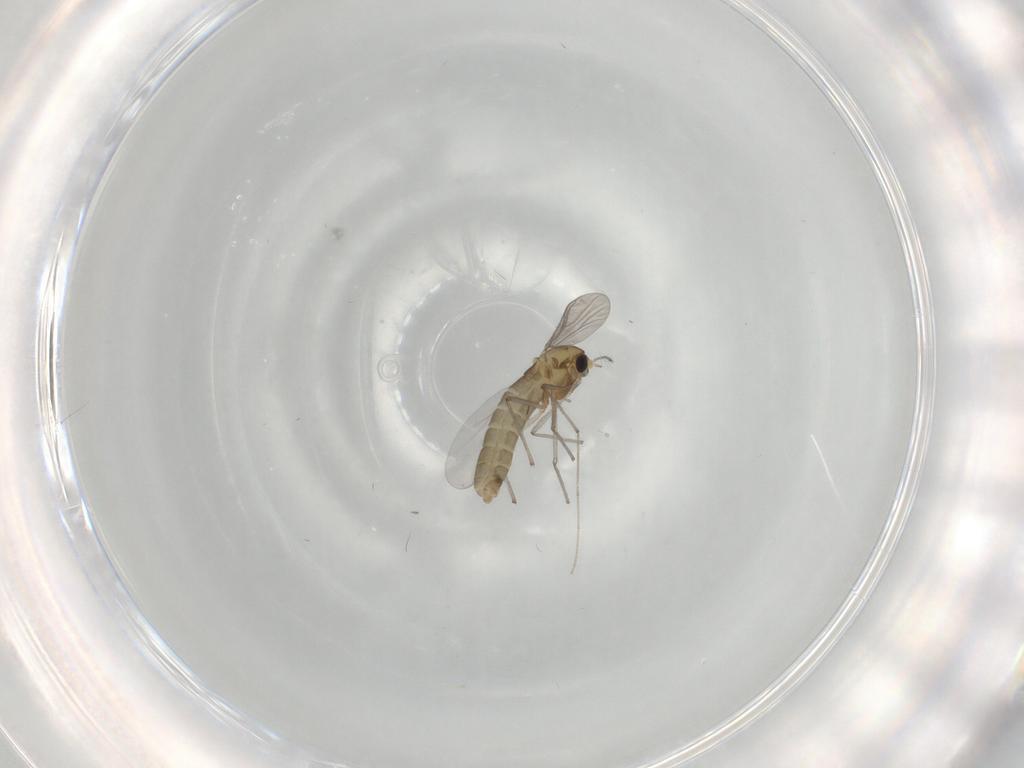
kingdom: Animalia
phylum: Arthropoda
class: Insecta
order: Diptera
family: Chironomidae
